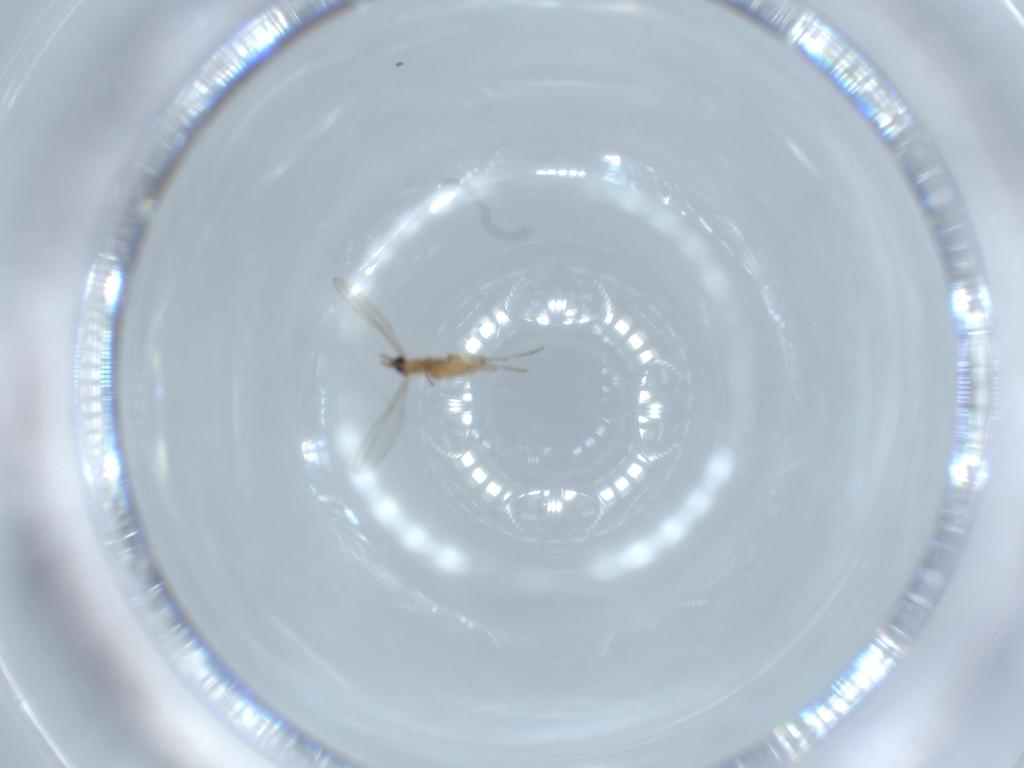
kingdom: Animalia
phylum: Arthropoda
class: Insecta
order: Diptera
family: Cecidomyiidae
